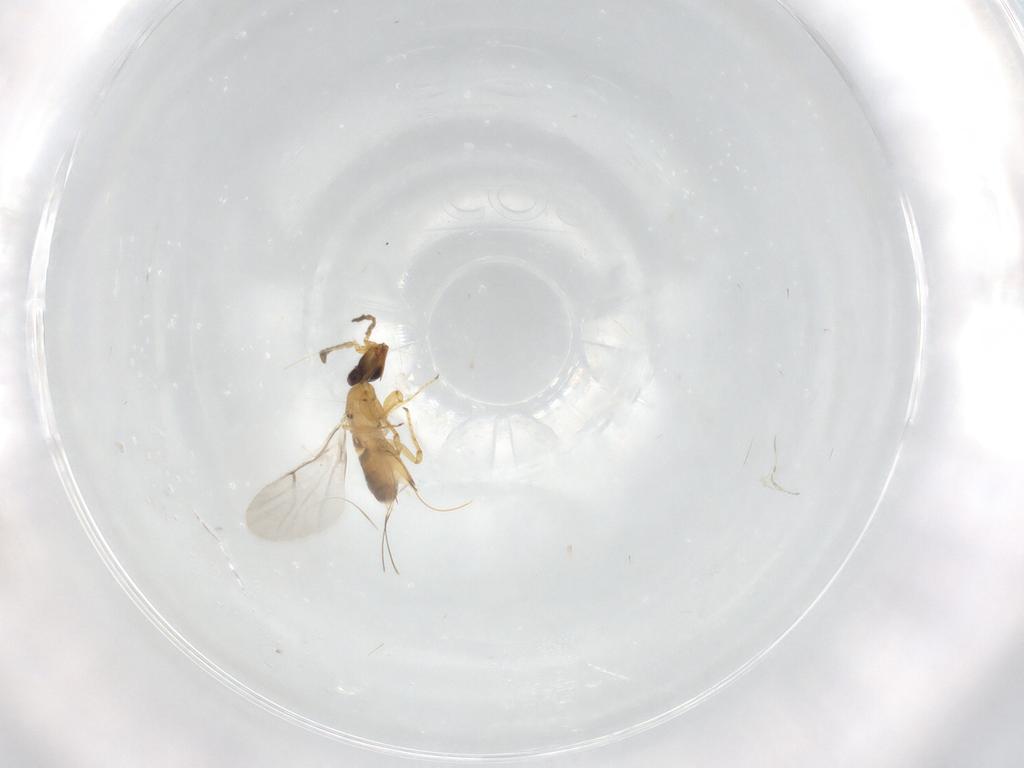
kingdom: Animalia
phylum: Arthropoda
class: Insecta
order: Hymenoptera
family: Agaonidae
